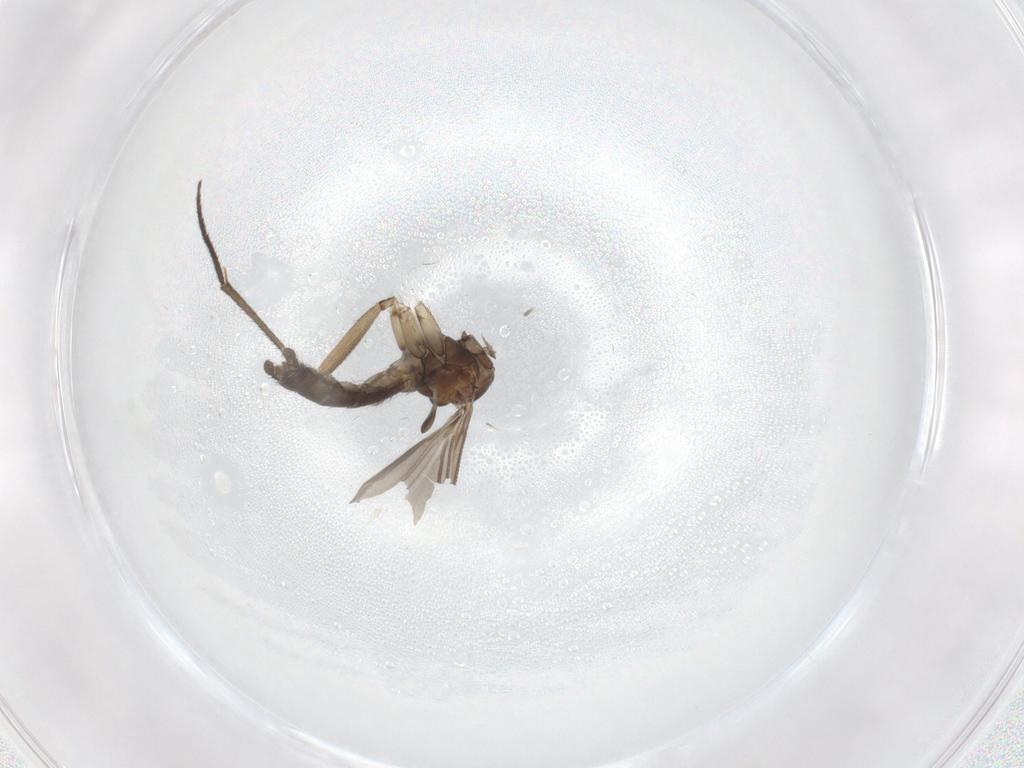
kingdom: Animalia
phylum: Arthropoda
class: Insecta
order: Diptera
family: Sciaridae
